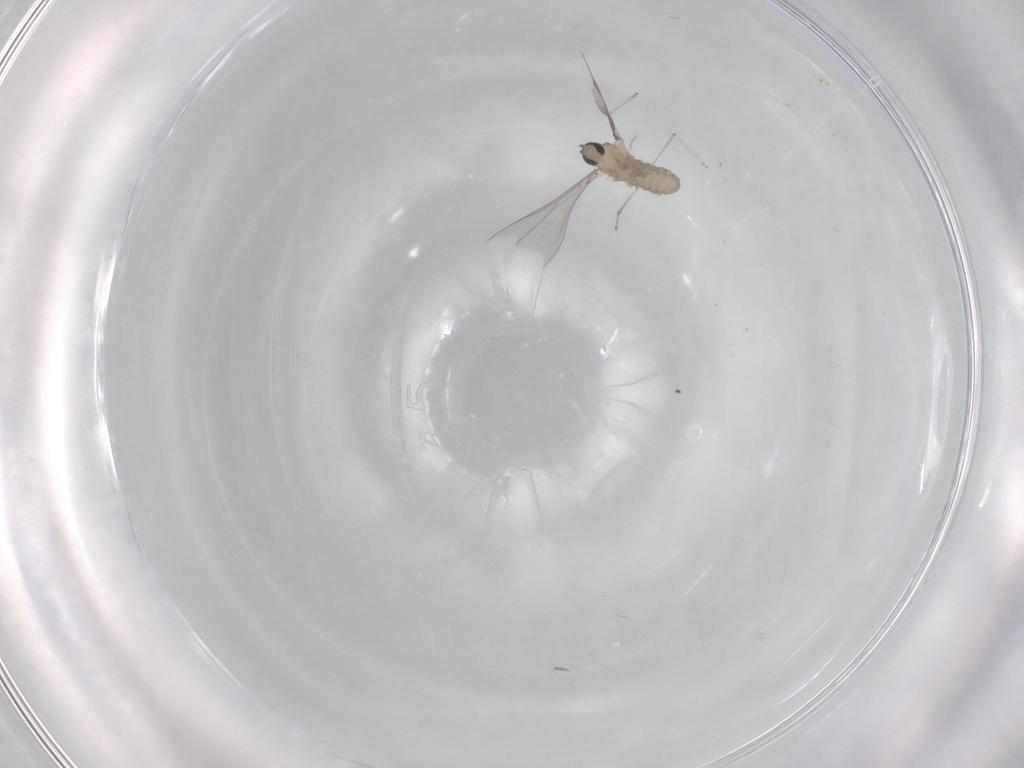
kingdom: Animalia
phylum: Arthropoda
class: Insecta
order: Diptera
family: Cecidomyiidae
